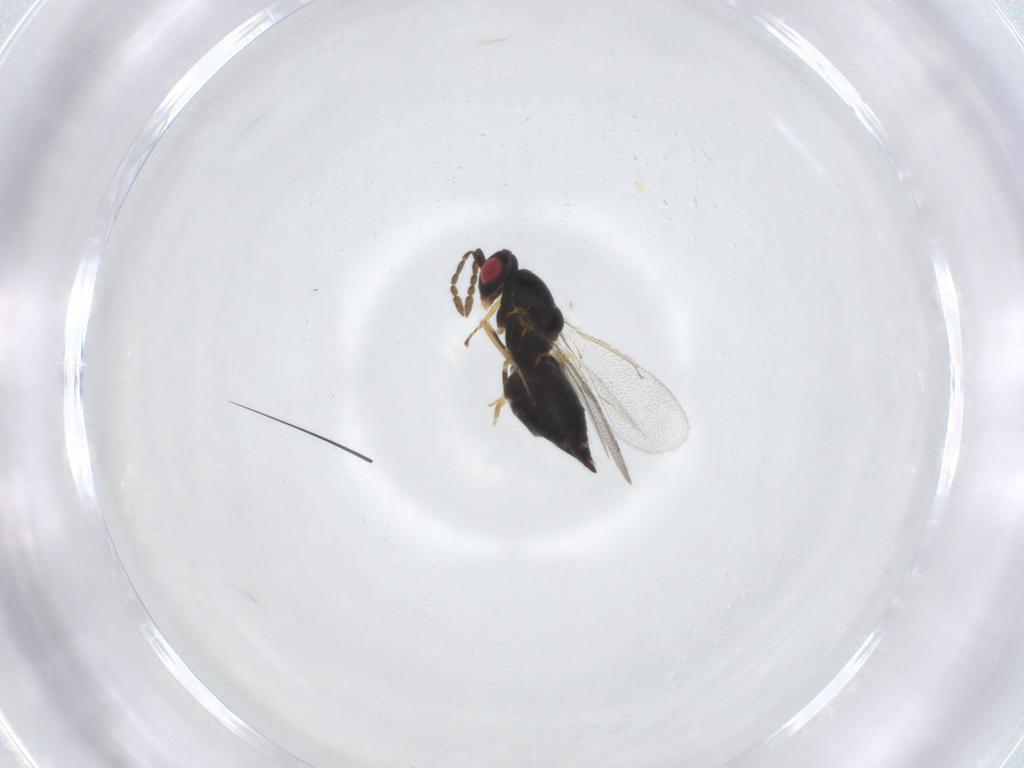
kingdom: Animalia
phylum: Arthropoda
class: Insecta
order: Hymenoptera
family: Eulophidae
